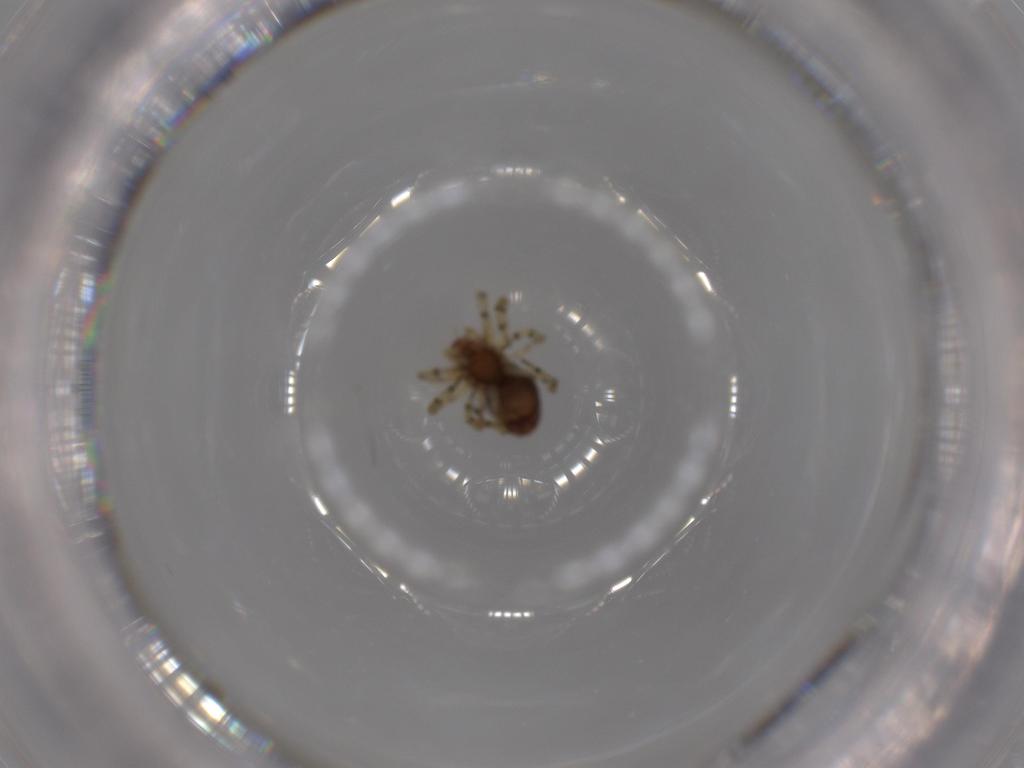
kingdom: Animalia
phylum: Arthropoda
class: Arachnida
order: Araneae
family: Dictynidae
